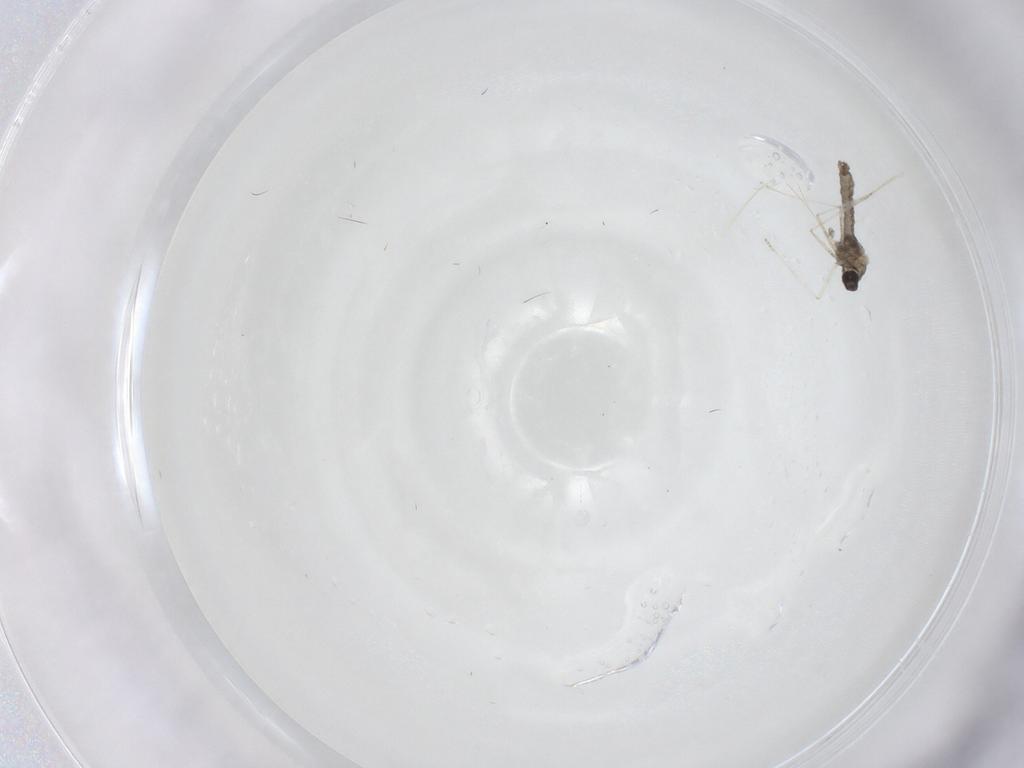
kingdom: Animalia
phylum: Arthropoda
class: Insecta
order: Diptera
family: Cecidomyiidae
